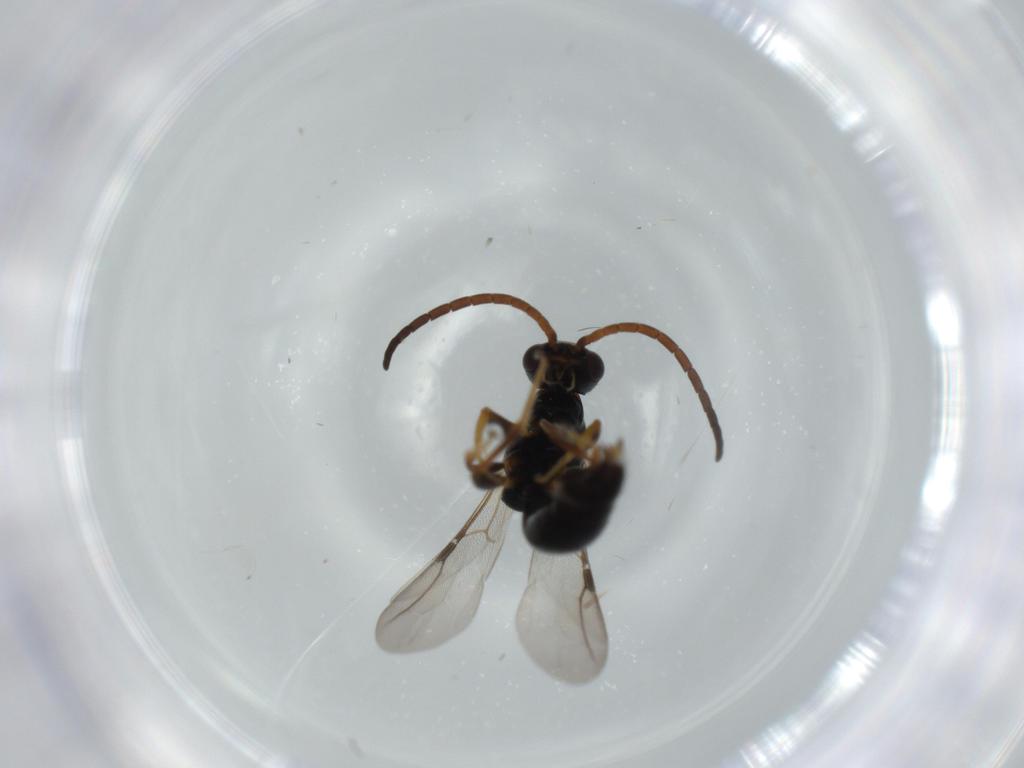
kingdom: Animalia
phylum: Arthropoda
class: Insecta
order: Hymenoptera
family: Bethylidae
